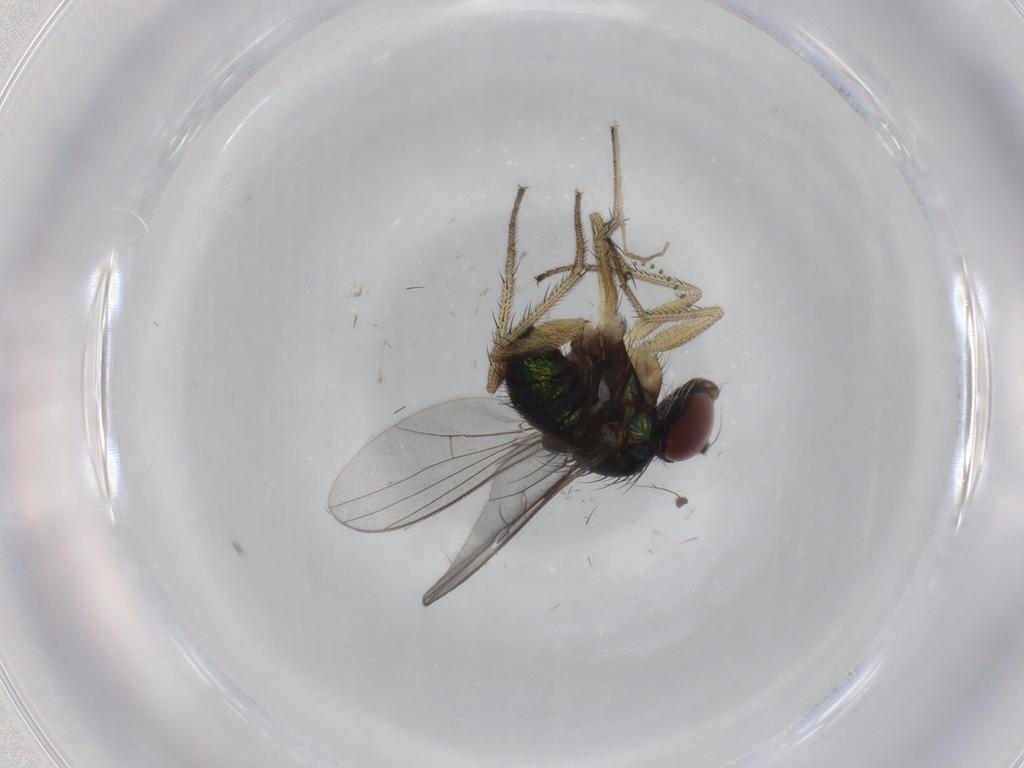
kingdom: Animalia
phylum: Arthropoda
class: Insecta
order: Diptera
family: Dolichopodidae
